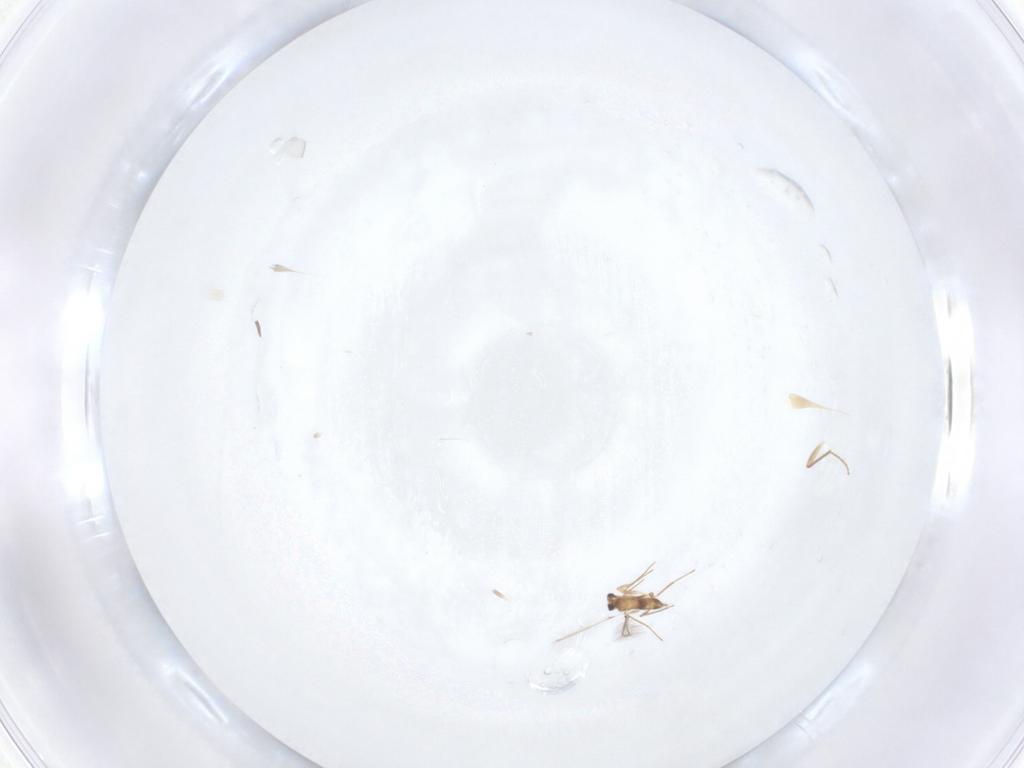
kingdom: Animalia
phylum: Arthropoda
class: Insecta
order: Diptera
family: Chironomidae
